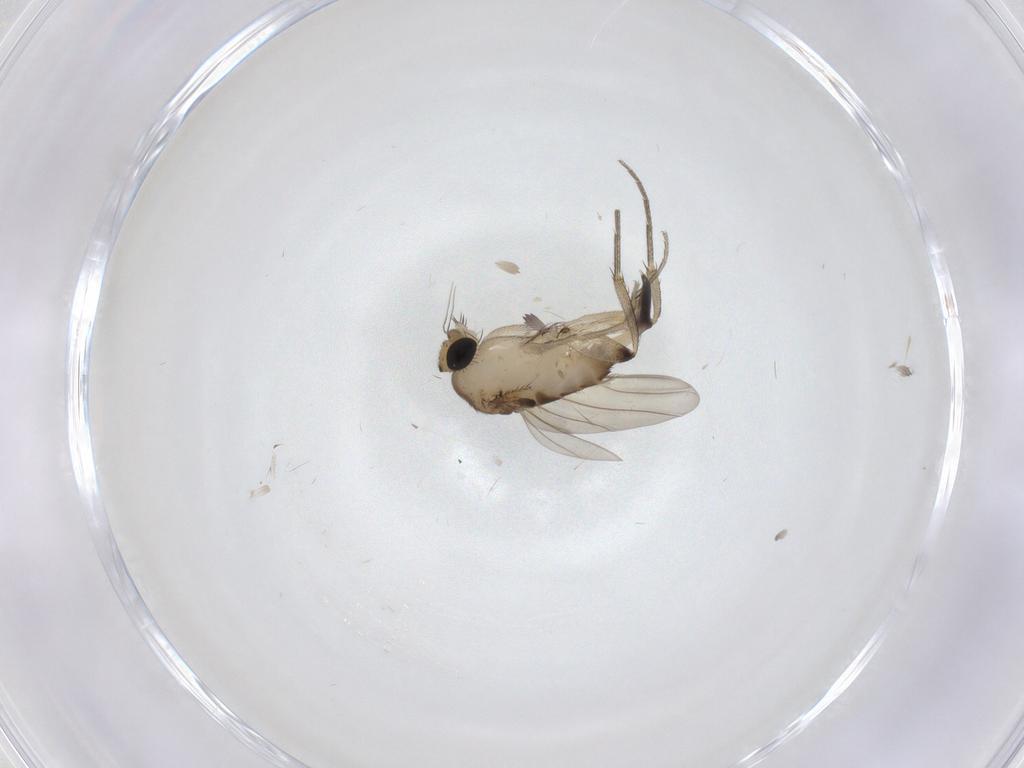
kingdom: Animalia
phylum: Arthropoda
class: Insecta
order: Diptera
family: Phoridae
